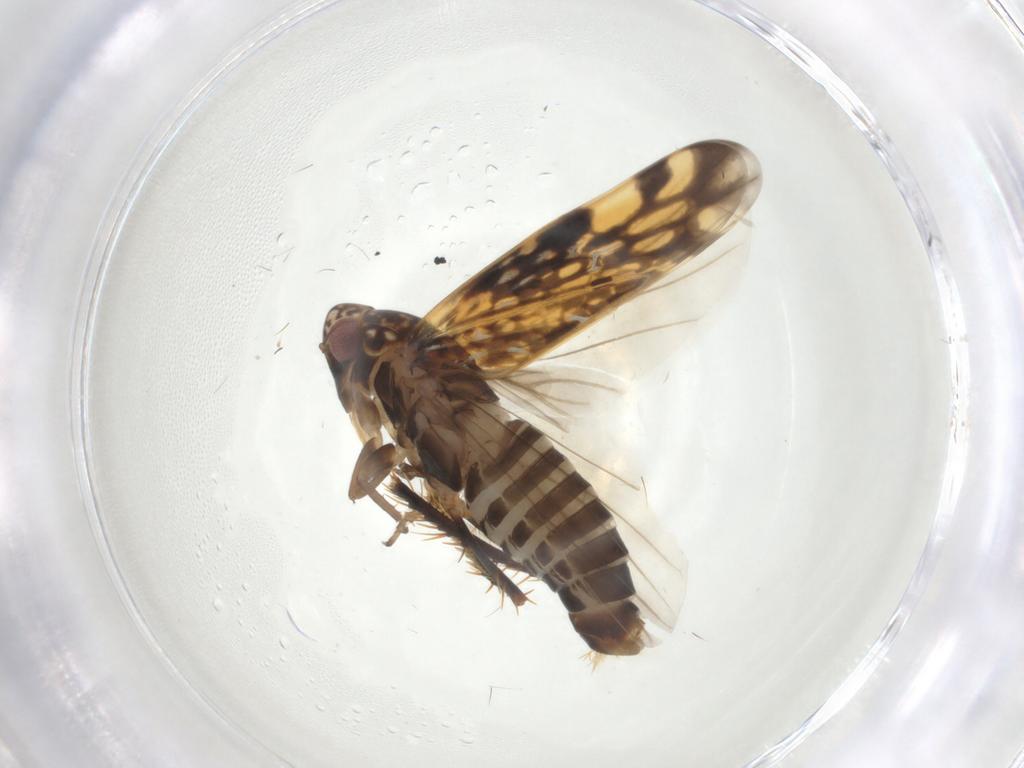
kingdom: Animalia
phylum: Arthropoda
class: Insecta
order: Hemiptera
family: Cicadellidae
